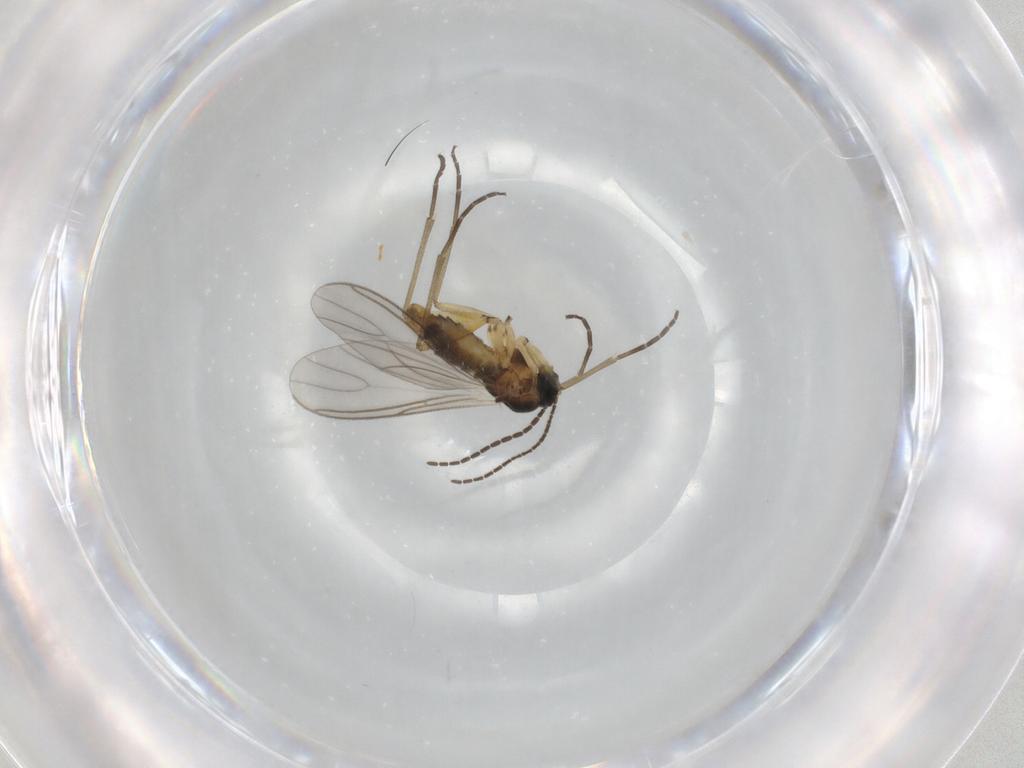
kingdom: Animalia
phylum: Arthropoda
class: Insecta
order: Diptera
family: Sciaridae
